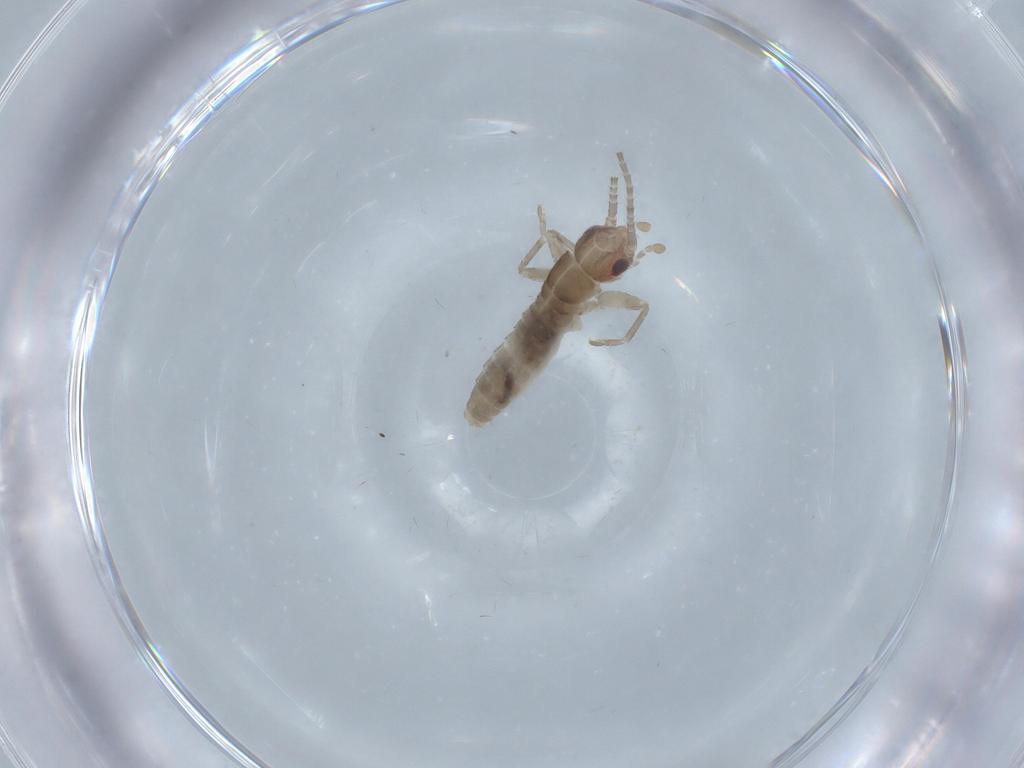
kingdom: Animalia
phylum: Arthropoda
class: Insecta
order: Orthoptera
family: Mogoplistidae
